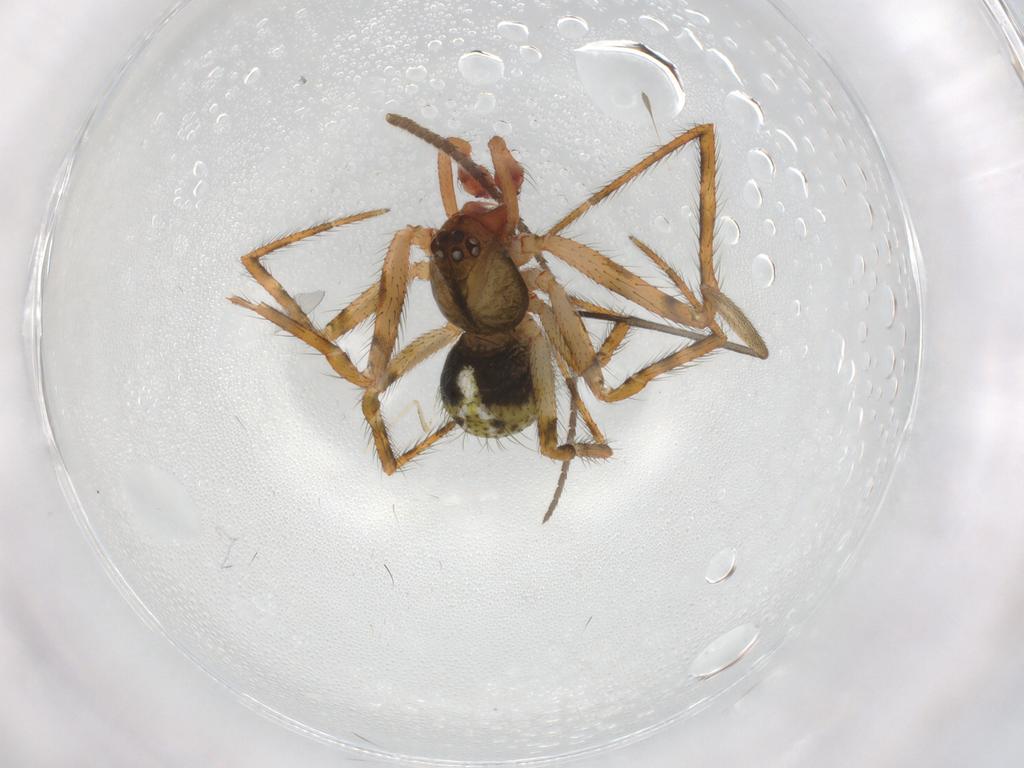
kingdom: Animalia
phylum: Arthropoda
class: Arachnida
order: Araneae
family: Theridiidae
